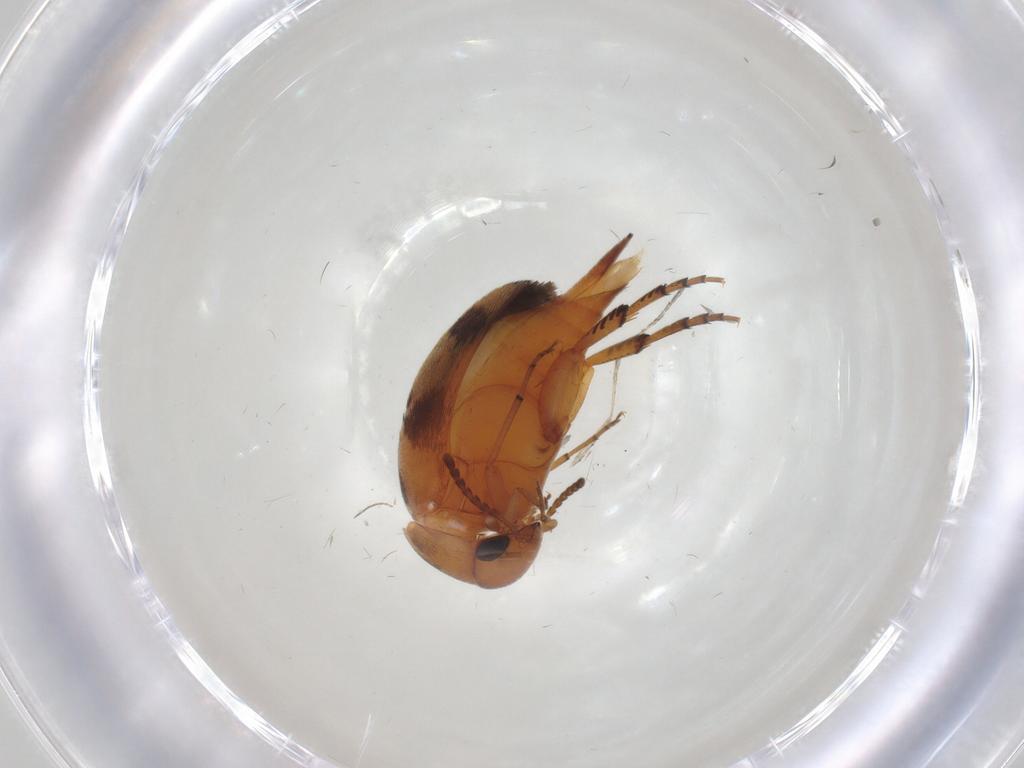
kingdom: Animalia
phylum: Arthropoda
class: Insecta
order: Coleoptera
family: Mordellidae
